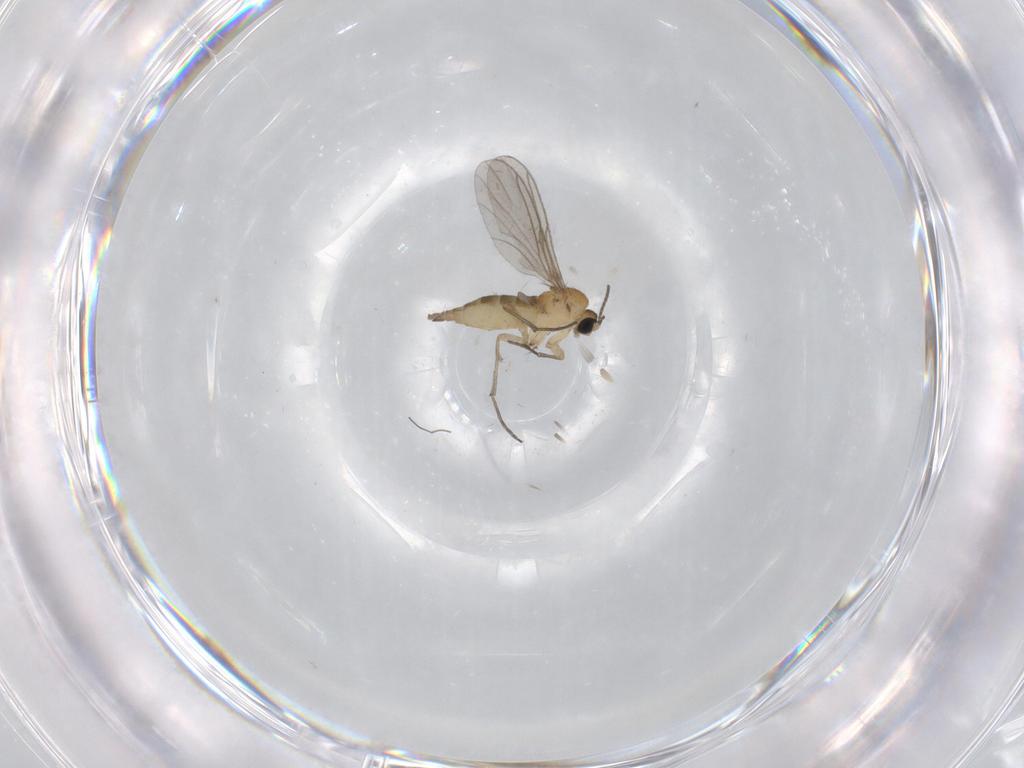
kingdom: Animalia
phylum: Arthropoda
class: Insecta
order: Diptera
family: Sciaridae
